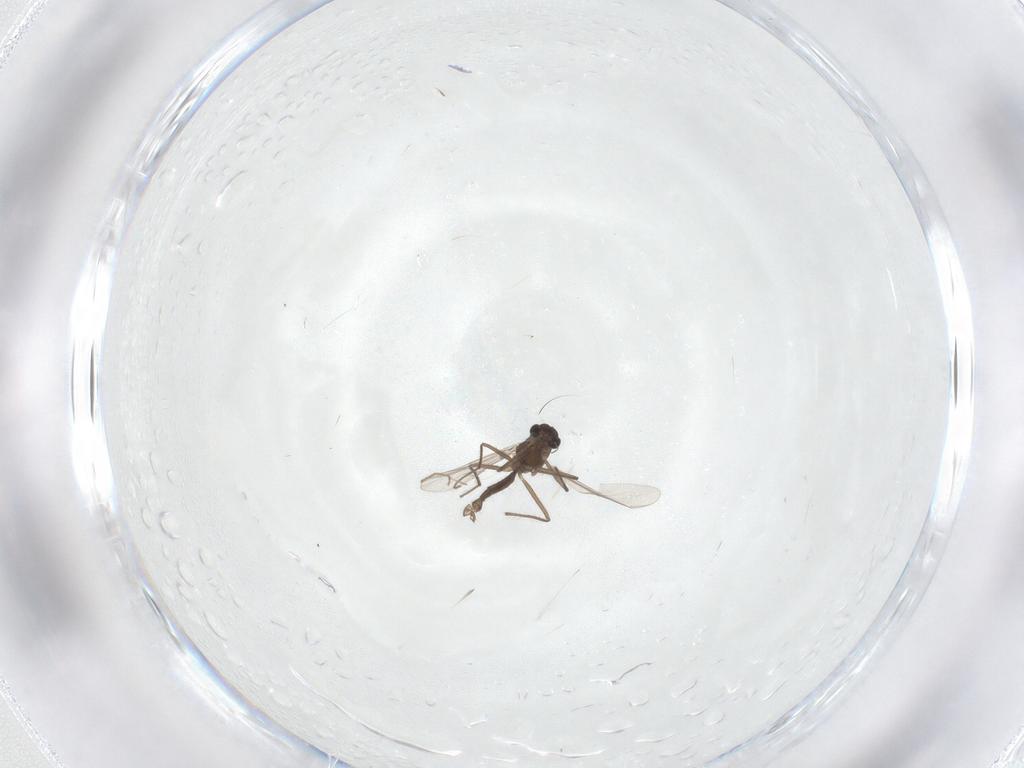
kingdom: Animalia
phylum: Arthropoda
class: Insecta
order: Diptera
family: Chironomidae
